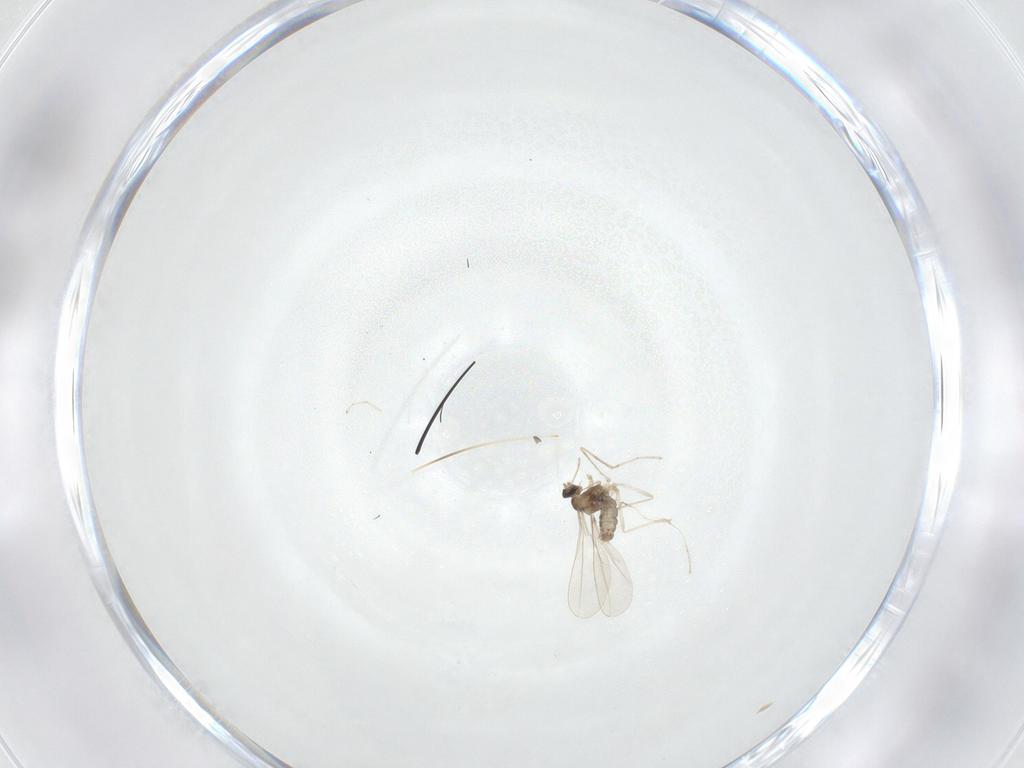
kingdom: Animalia
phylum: Arthropoda
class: Insecta
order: Diptera
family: Cecidomyiidae
